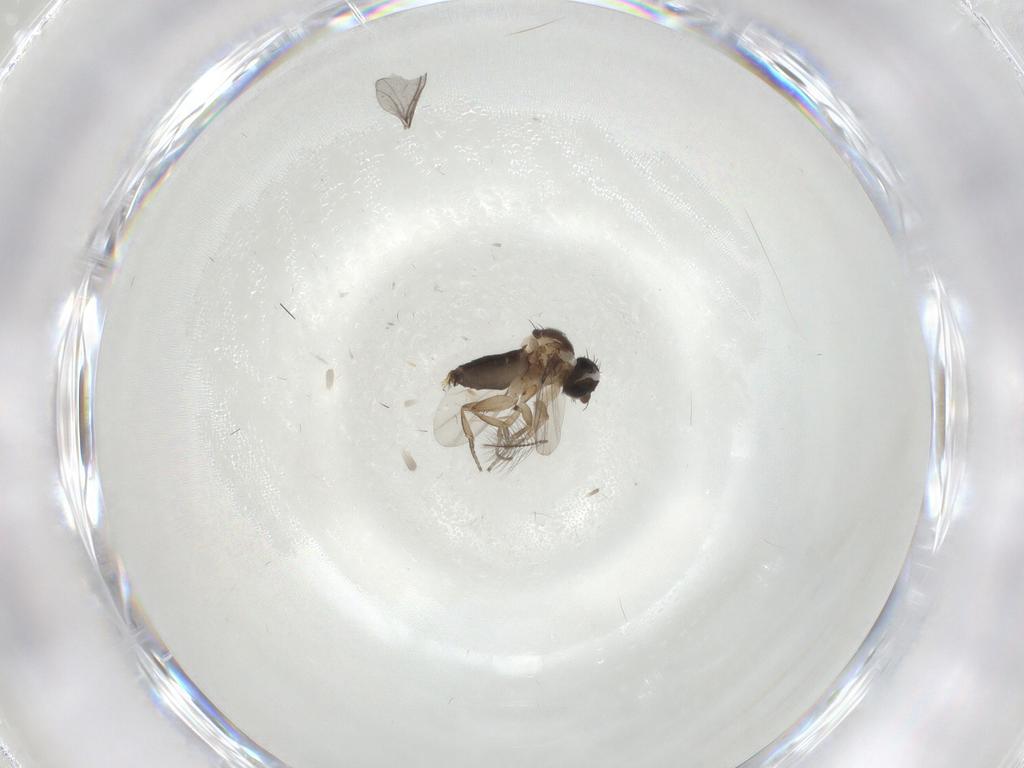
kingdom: Animalia
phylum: Arthropoda
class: Insecta
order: Diptera
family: Phoridae
